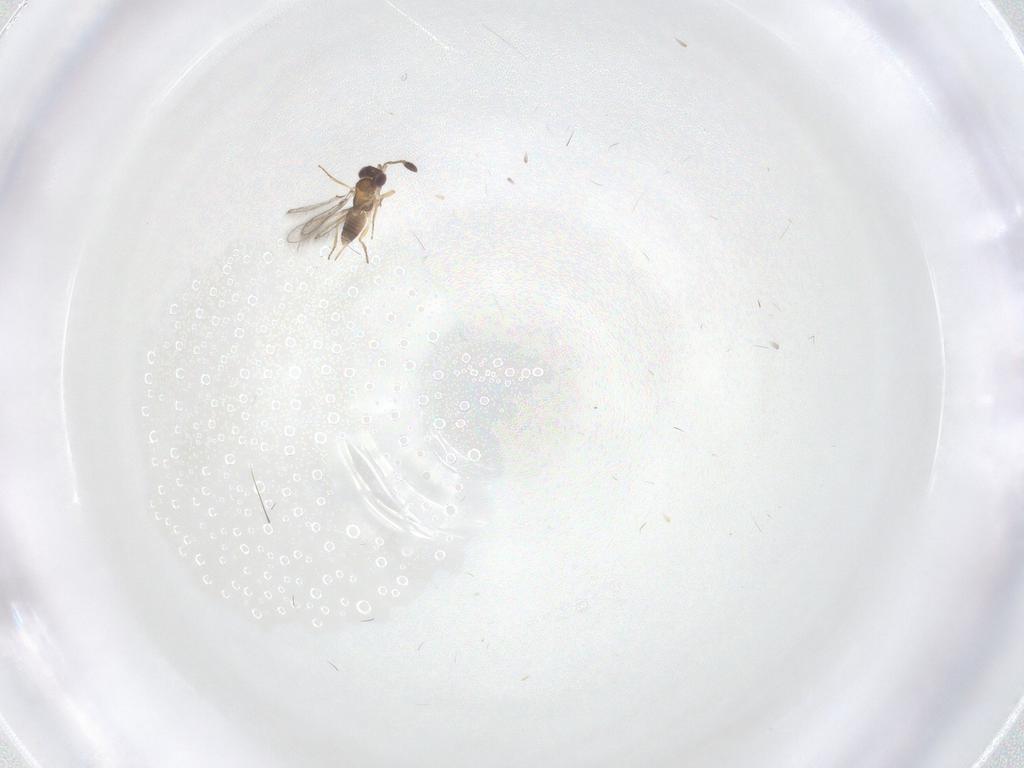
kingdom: Animalia
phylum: Arthropoda
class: Insecta
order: Hymenoptera
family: Mymaridae
